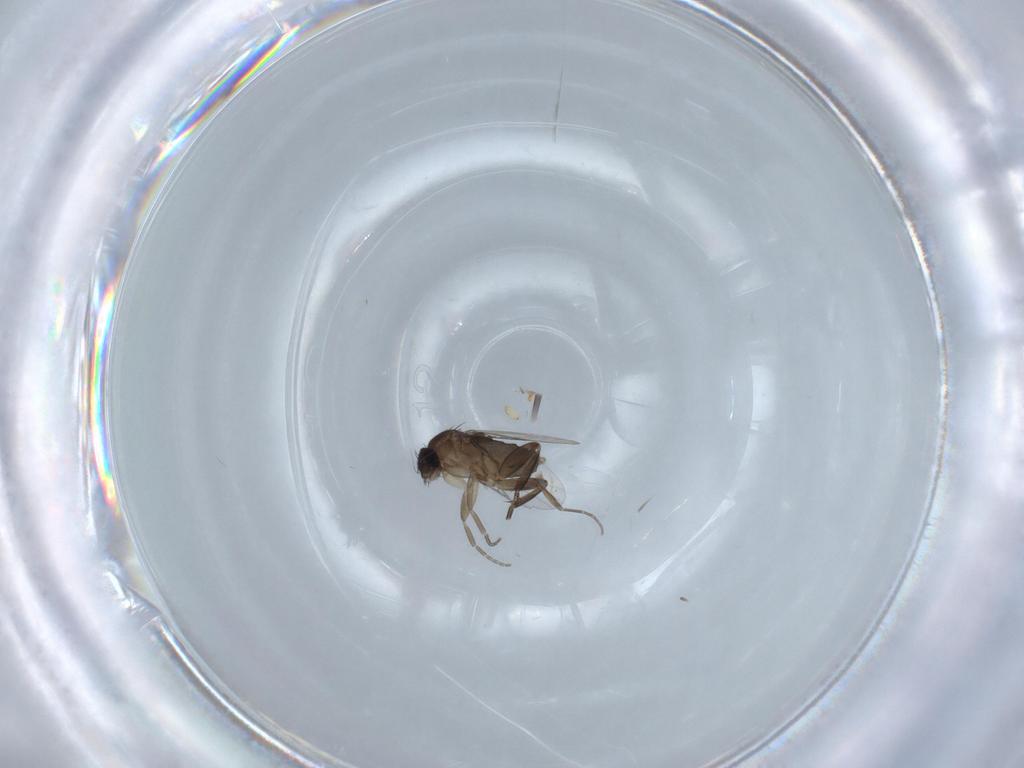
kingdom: Animalia
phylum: Arthropoda
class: Insecta
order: Diptera
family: Phoridae
